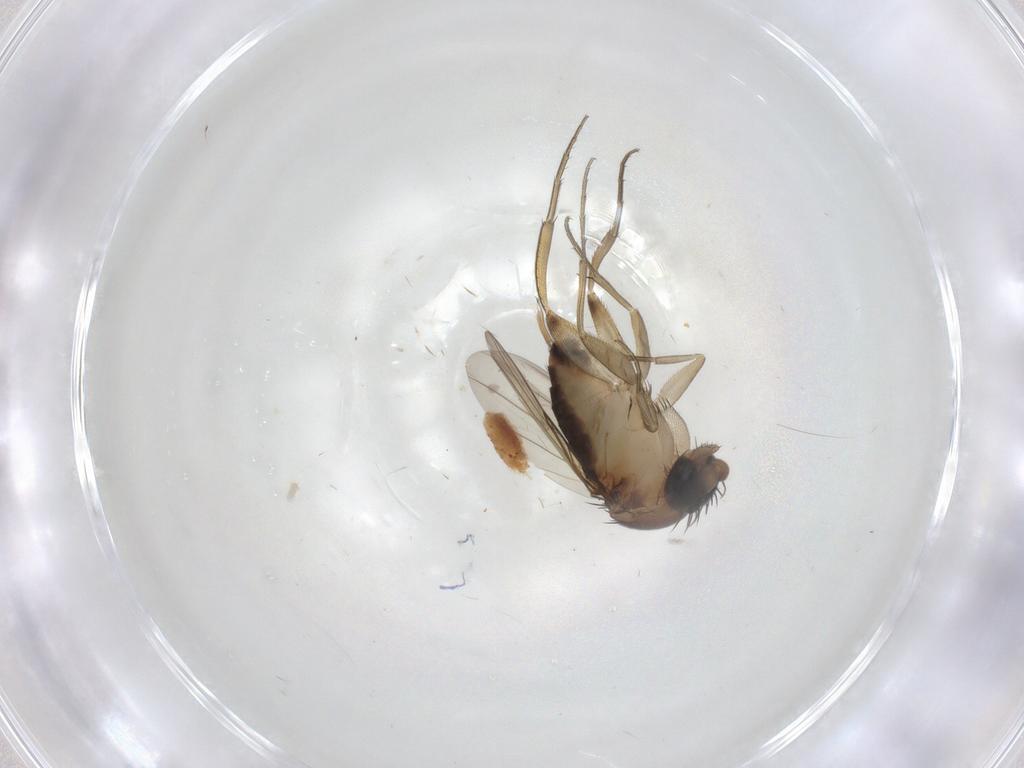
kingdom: Animalia
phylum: Arthropoda
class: Insecta
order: Diptera
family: Phoridae
